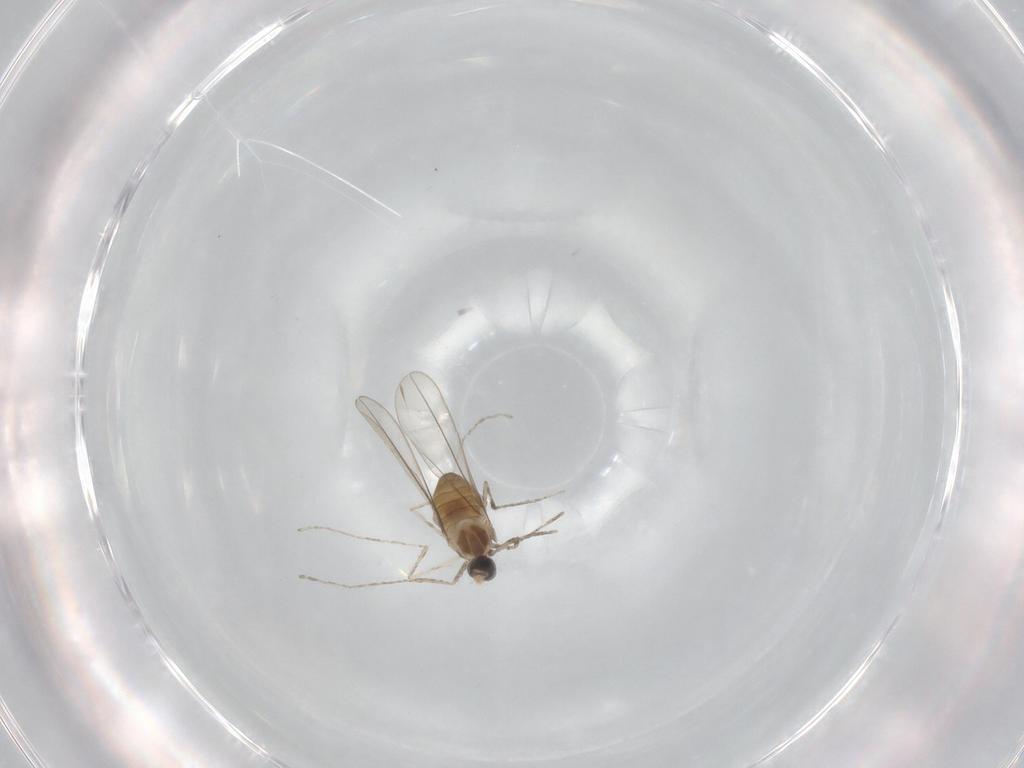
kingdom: Animalia
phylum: Arthropoda
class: Insecta
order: Diptera
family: Cecidomyiidae
